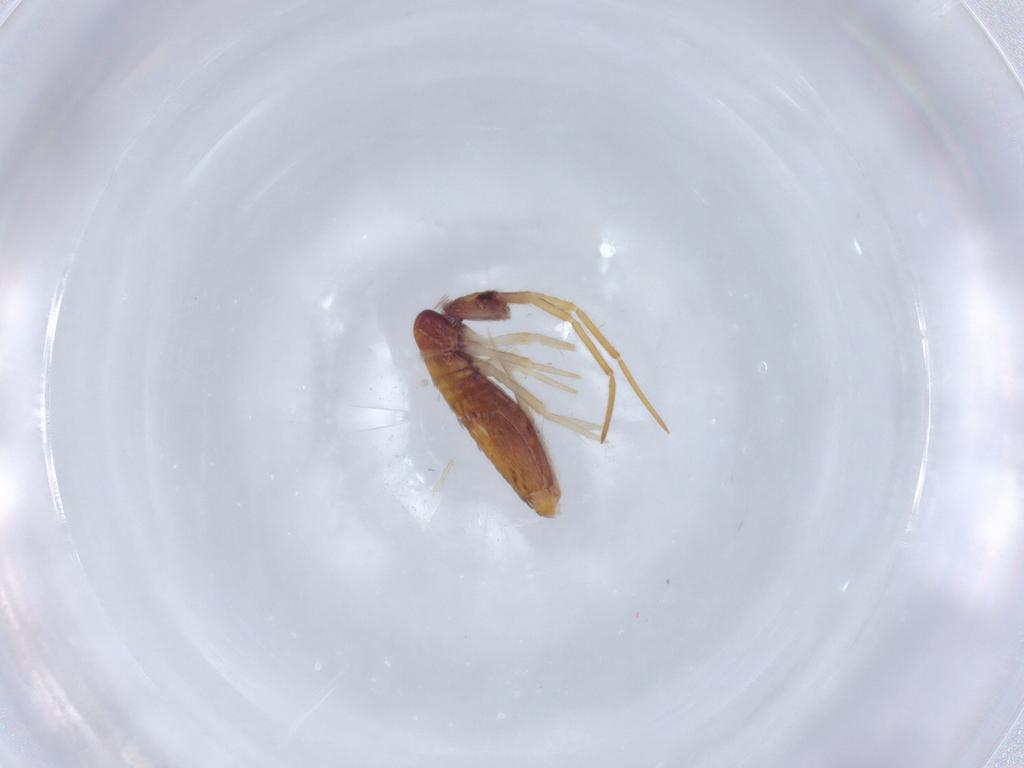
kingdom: Animalia
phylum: Arthropoda
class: Collembola
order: Entomobryomorpha
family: Entomobryidae
